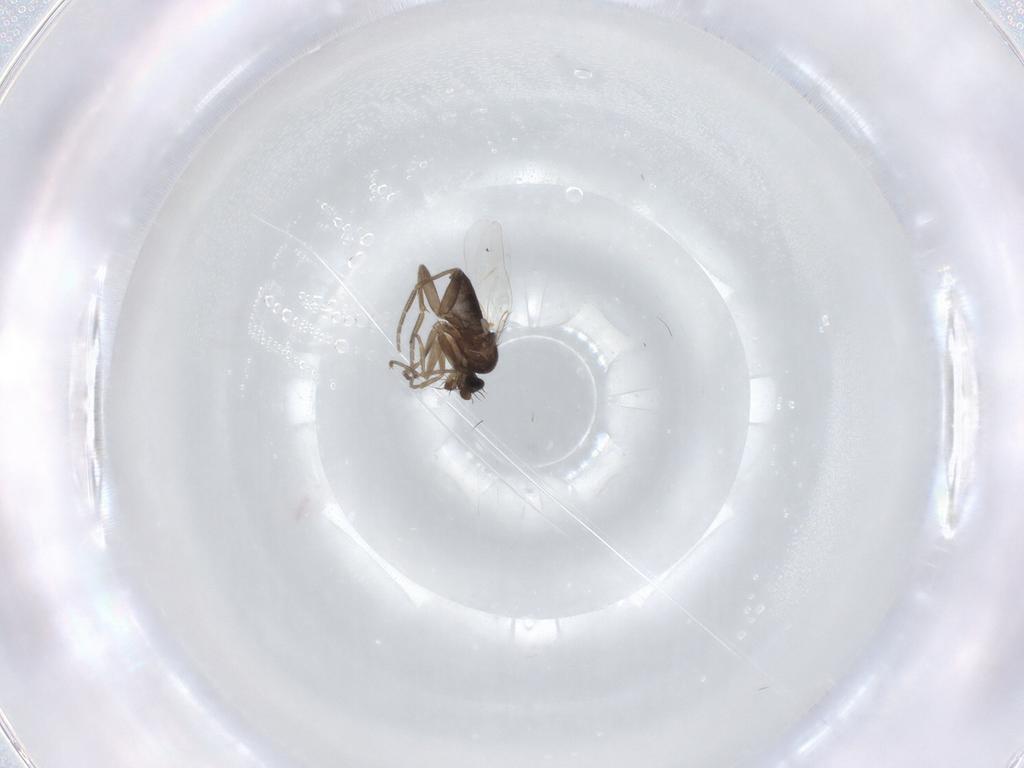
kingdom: Animalia
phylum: Arthropoda
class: Insecta
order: Diptera
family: Phoridae
